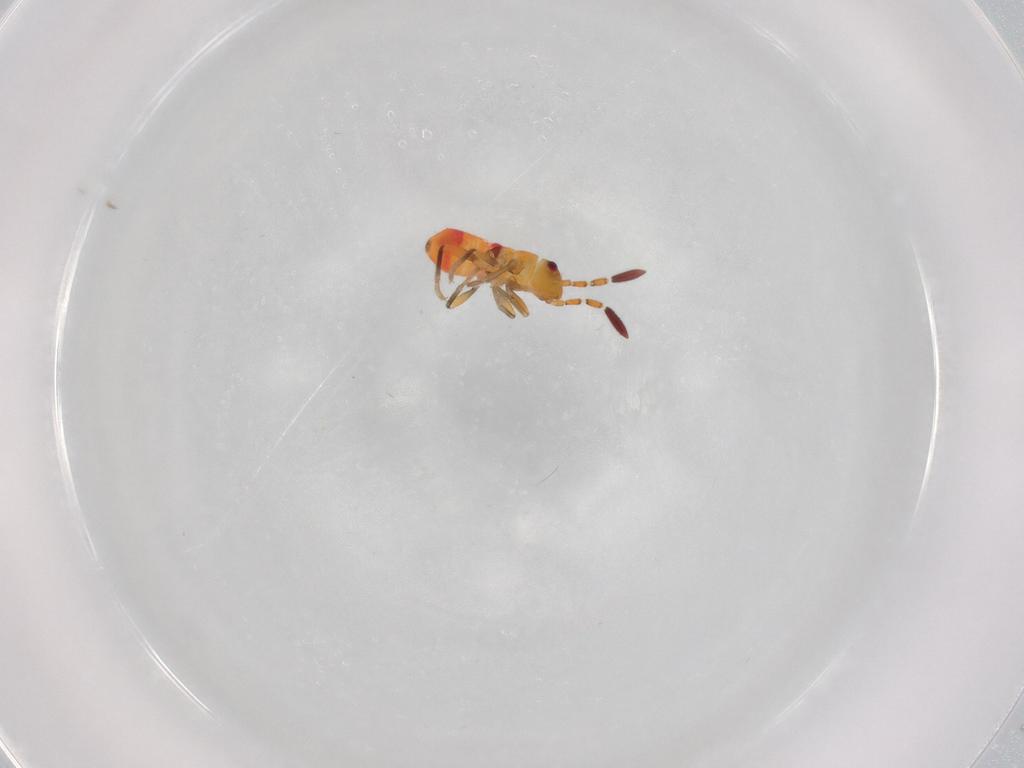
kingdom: Animalia
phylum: Arthropoda
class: Insecta
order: Hemiptera
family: Rhyparochromidae
